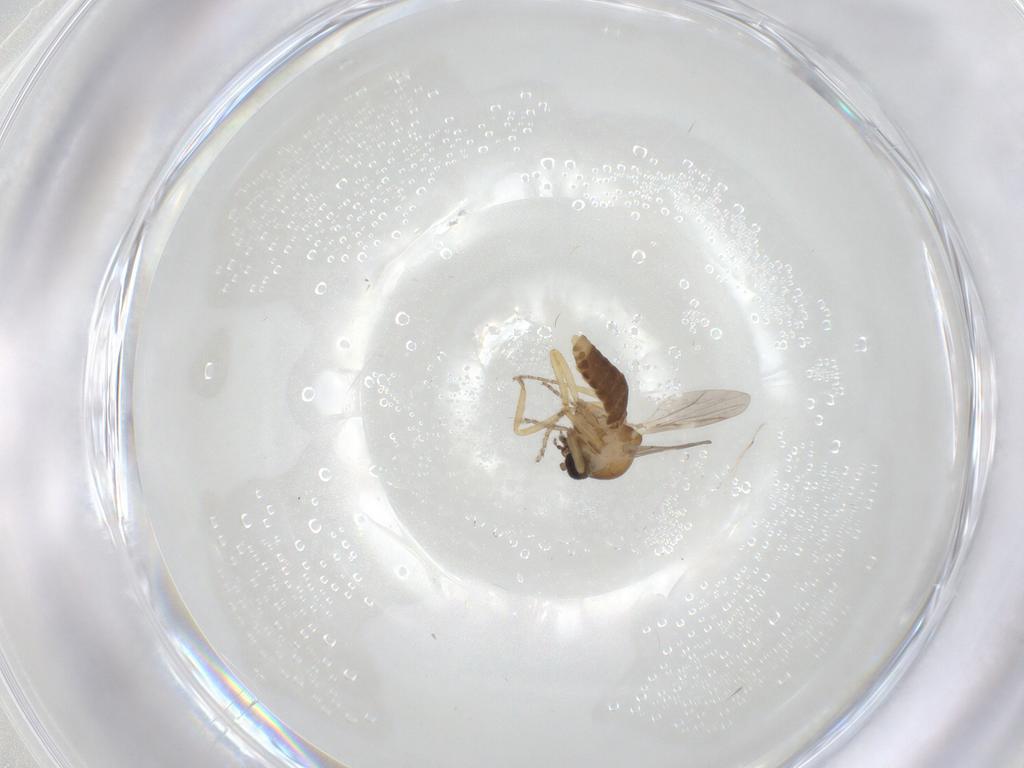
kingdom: Animalia
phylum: Arthropoda
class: Insecta
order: Diptera
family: Ceratopogonidae
